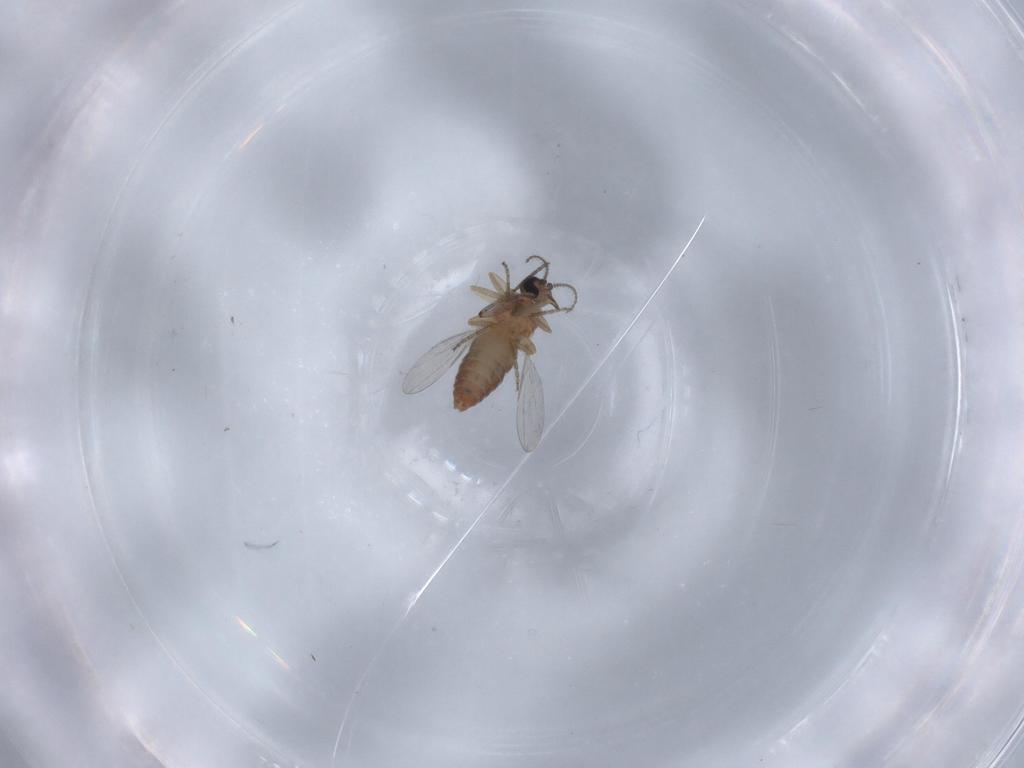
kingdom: Animalia
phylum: Arthropoda
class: Insecta
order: Diptera
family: Ceratopogonidae
